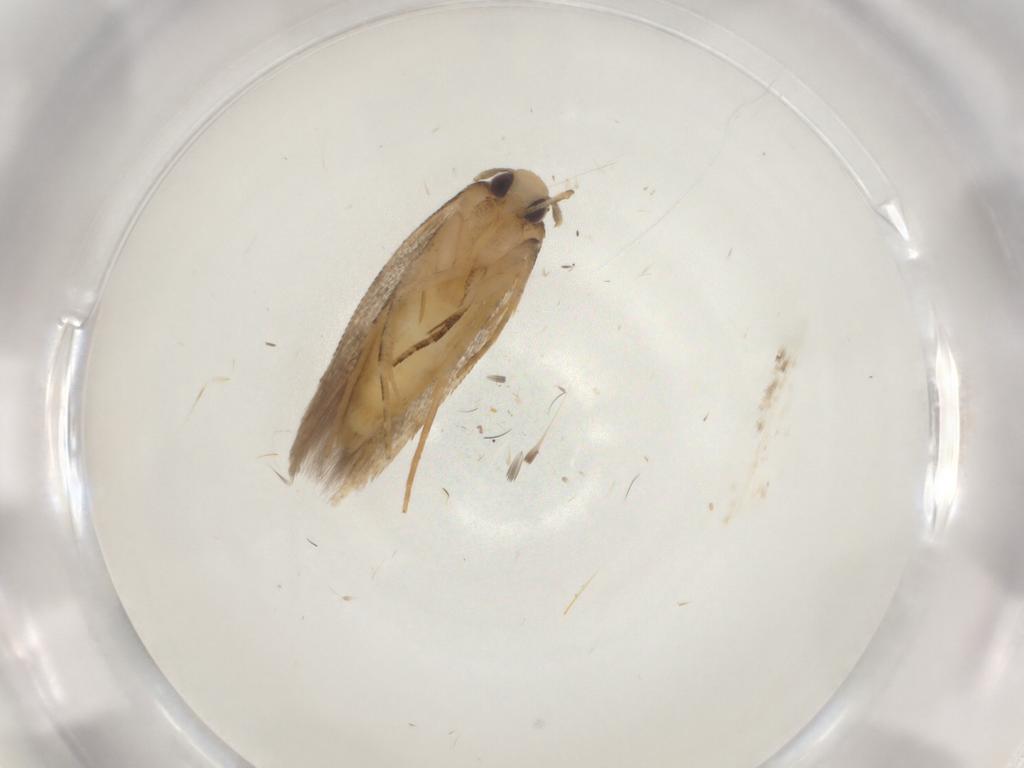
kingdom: Animalia
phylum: Arthropoda
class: Insecta
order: Lepidoptera
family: Cosmopterigidae
